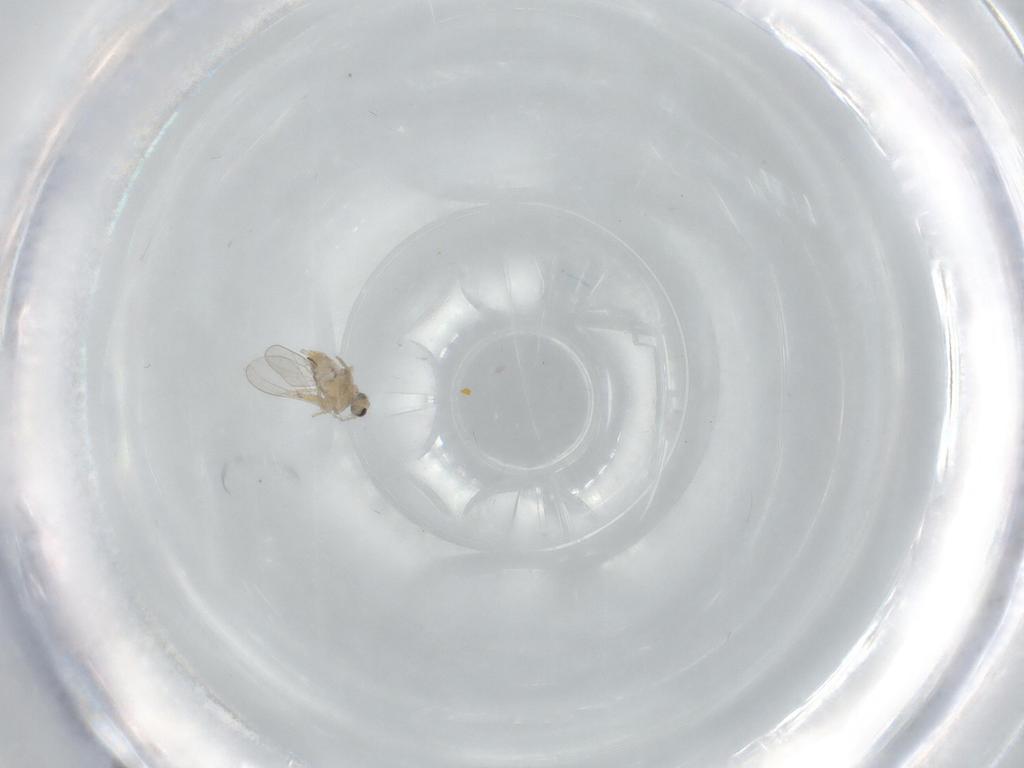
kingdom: Animalia
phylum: Arthropoda
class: Insecta
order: Diptera
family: Cecidomyiidae
